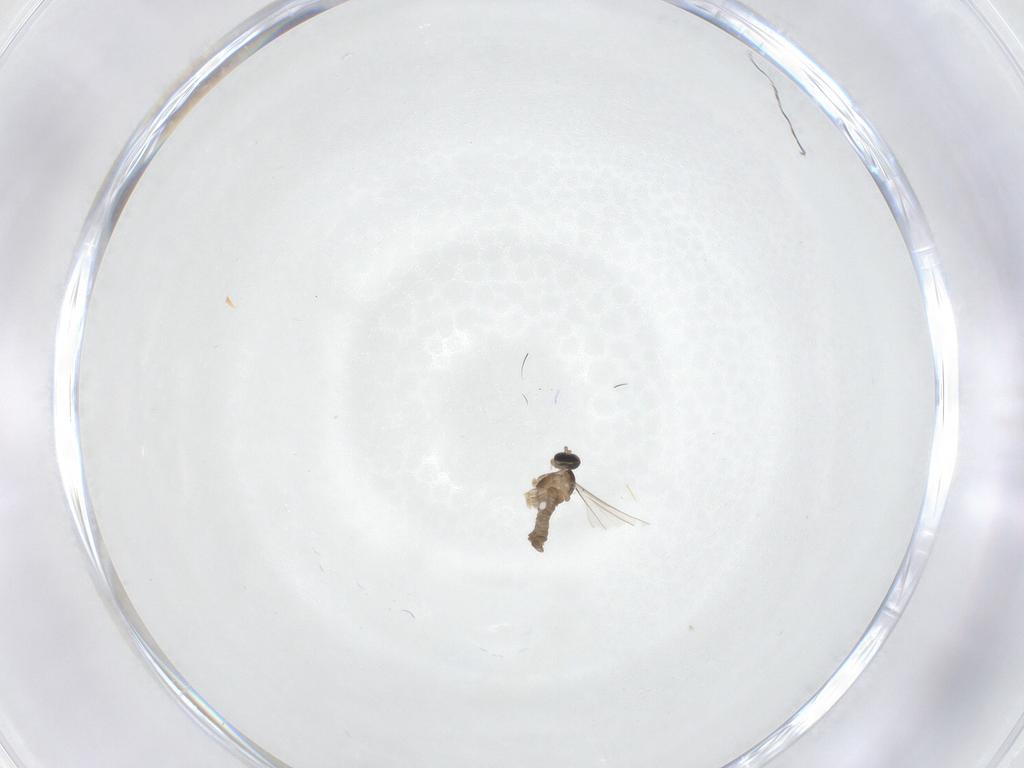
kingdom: Animalia
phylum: Arthropoda
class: Insecta
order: Diptera
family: Cecidomyiidae
